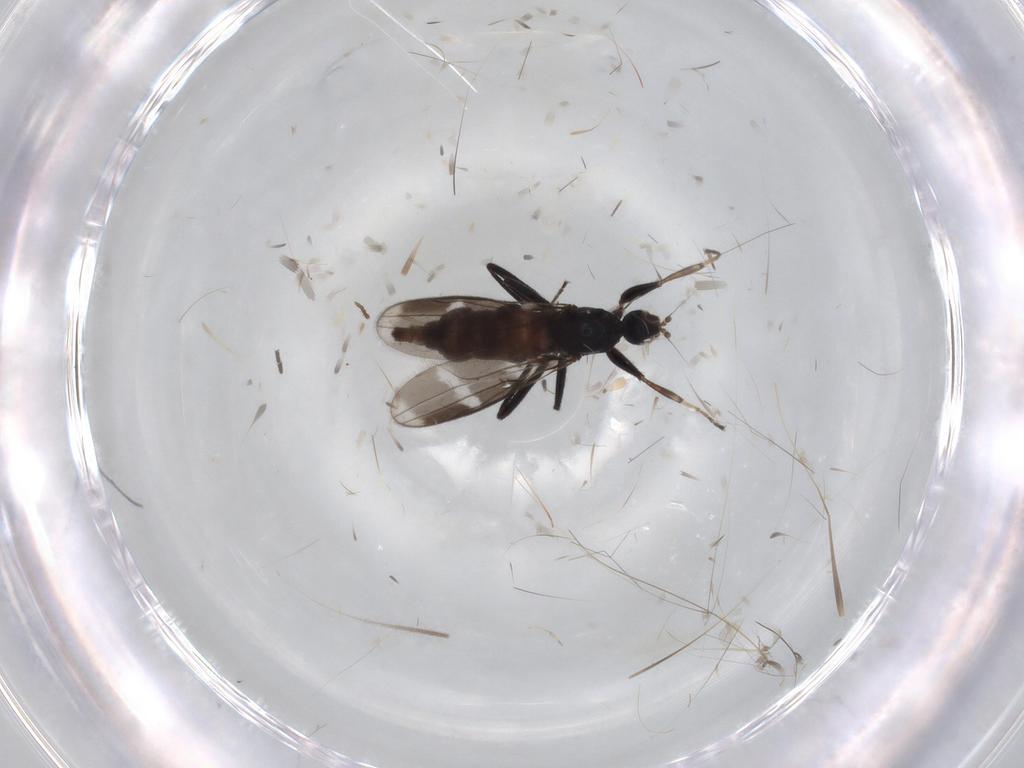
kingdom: Animalia
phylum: Arthropoda
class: Insecta
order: Diptera
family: Hybotidae
